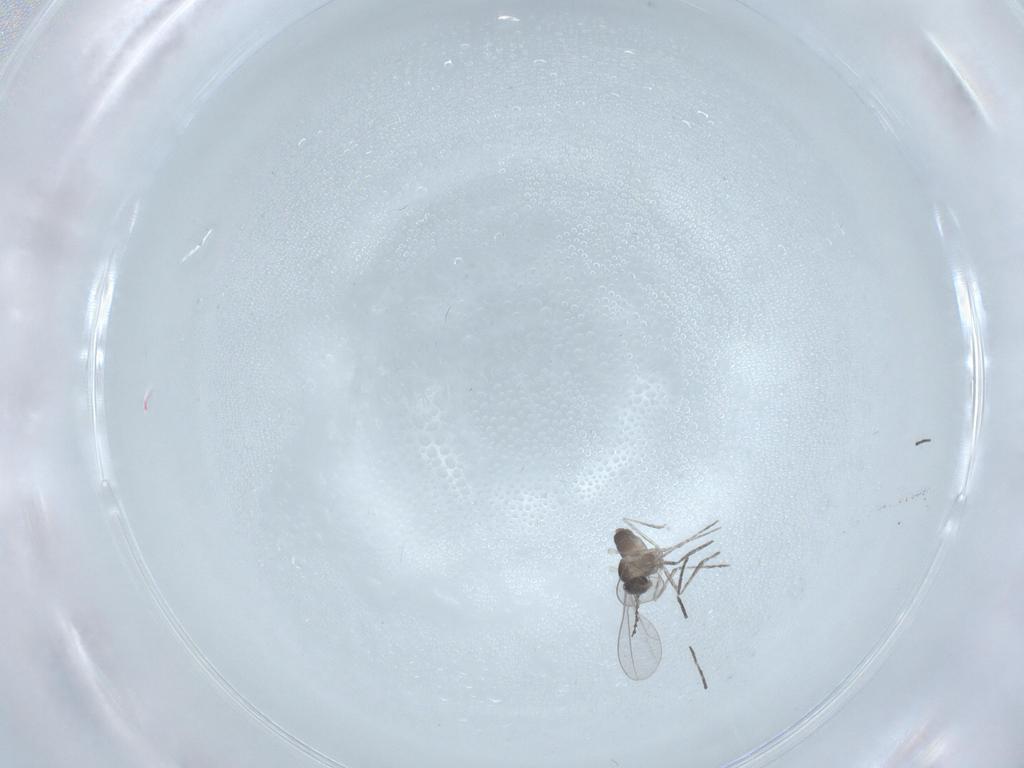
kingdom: Animalia
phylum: Arthropoda
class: Insecta
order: Diptera
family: Cecidomyiidae
